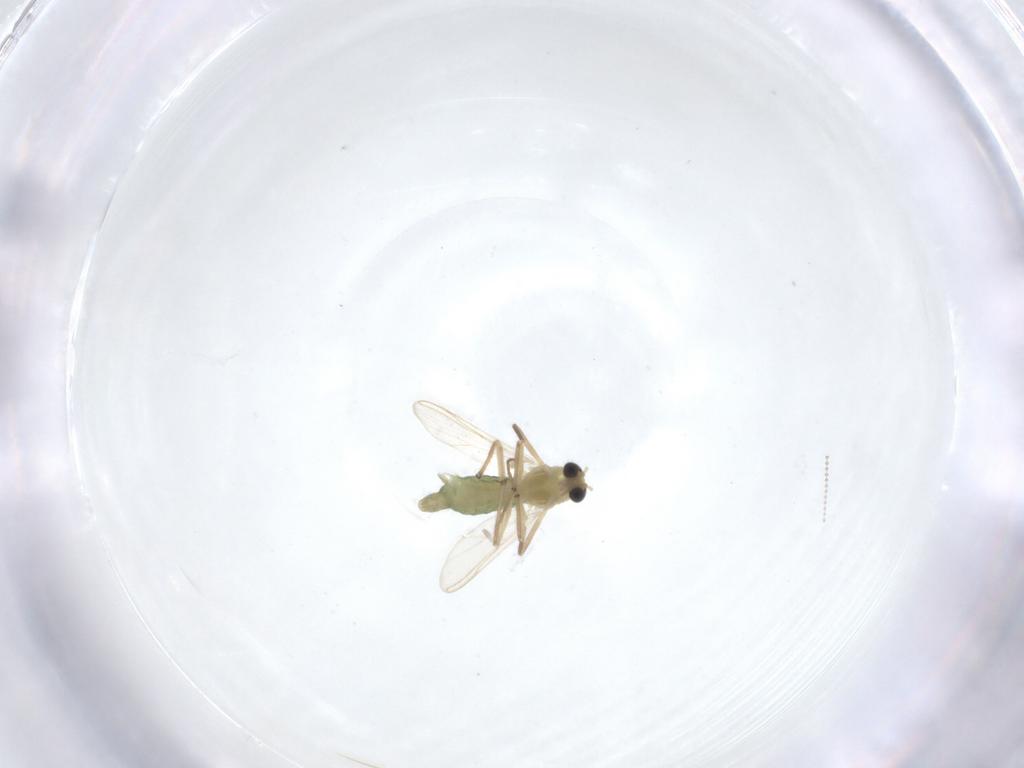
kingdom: Animalia
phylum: Arthropoda
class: Insecta
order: Diptera
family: Chironomidae
